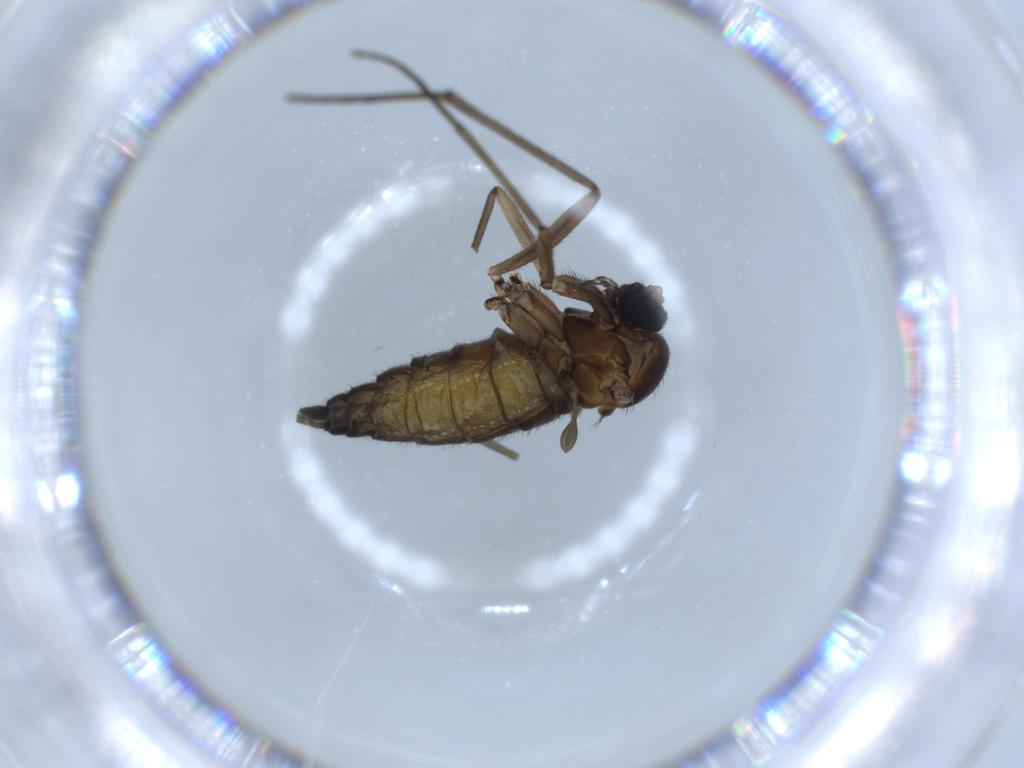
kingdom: Animalia
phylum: Arthropoda
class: Insecta
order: Diptera
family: Sciaridae
